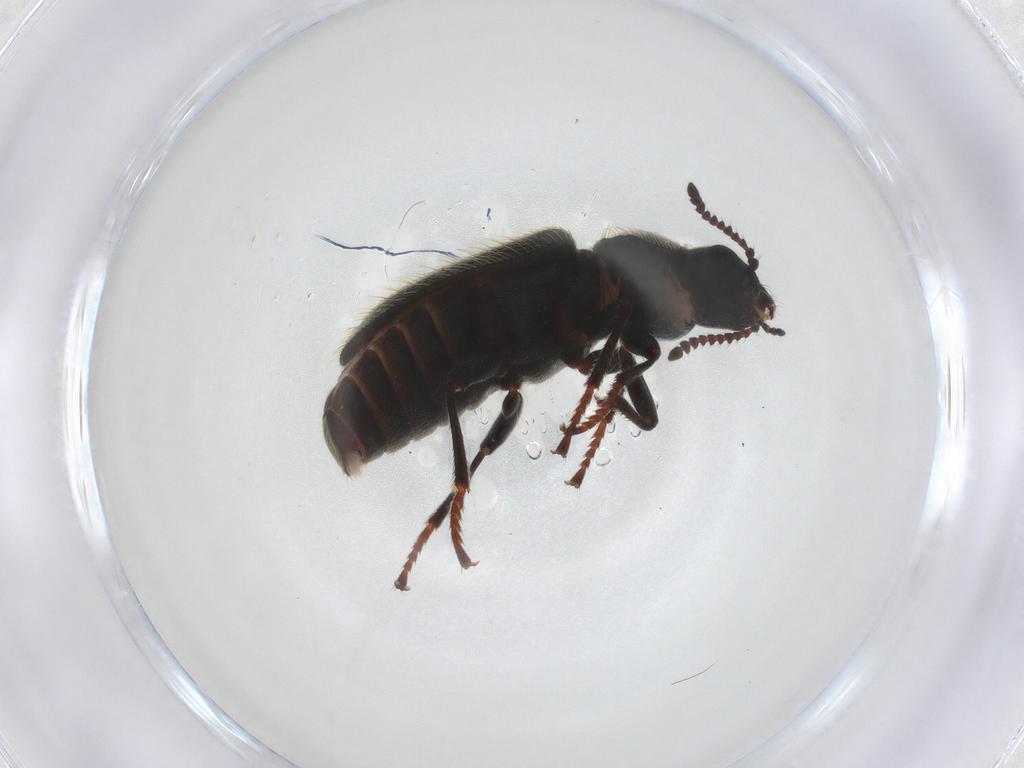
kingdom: Animalia
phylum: Arthropoda
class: Insecta
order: Coleoptera
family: Dasytidae
